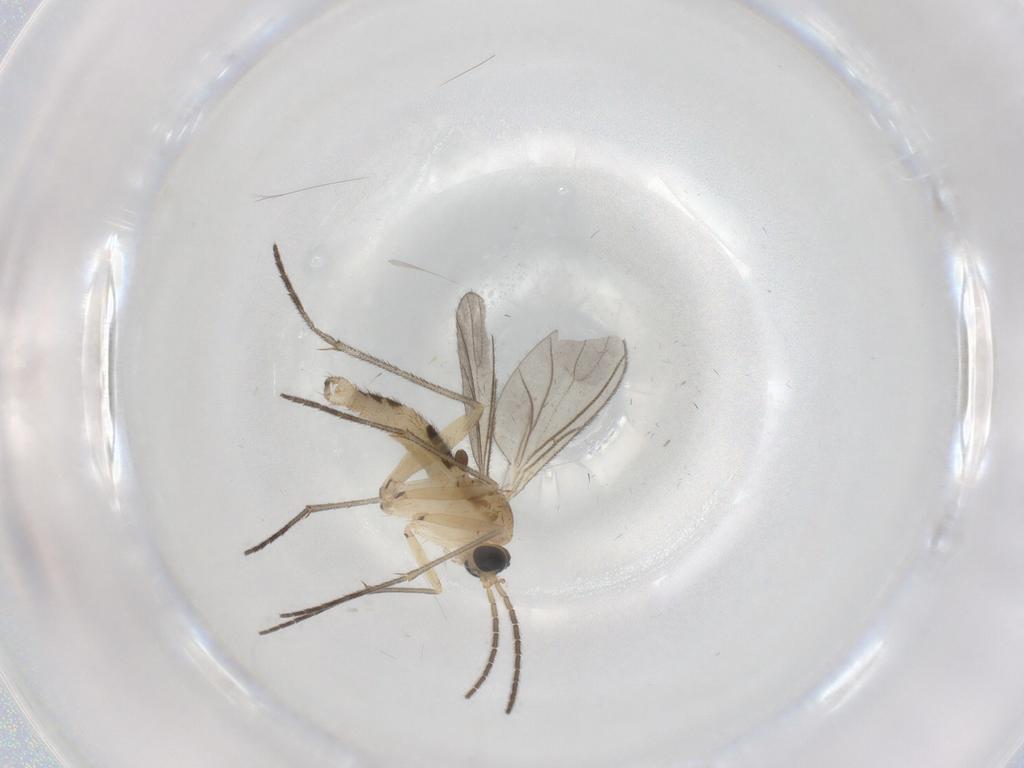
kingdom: Animalia
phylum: Arthropoda
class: Insecta
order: Diptera
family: Ceratopogonidae
